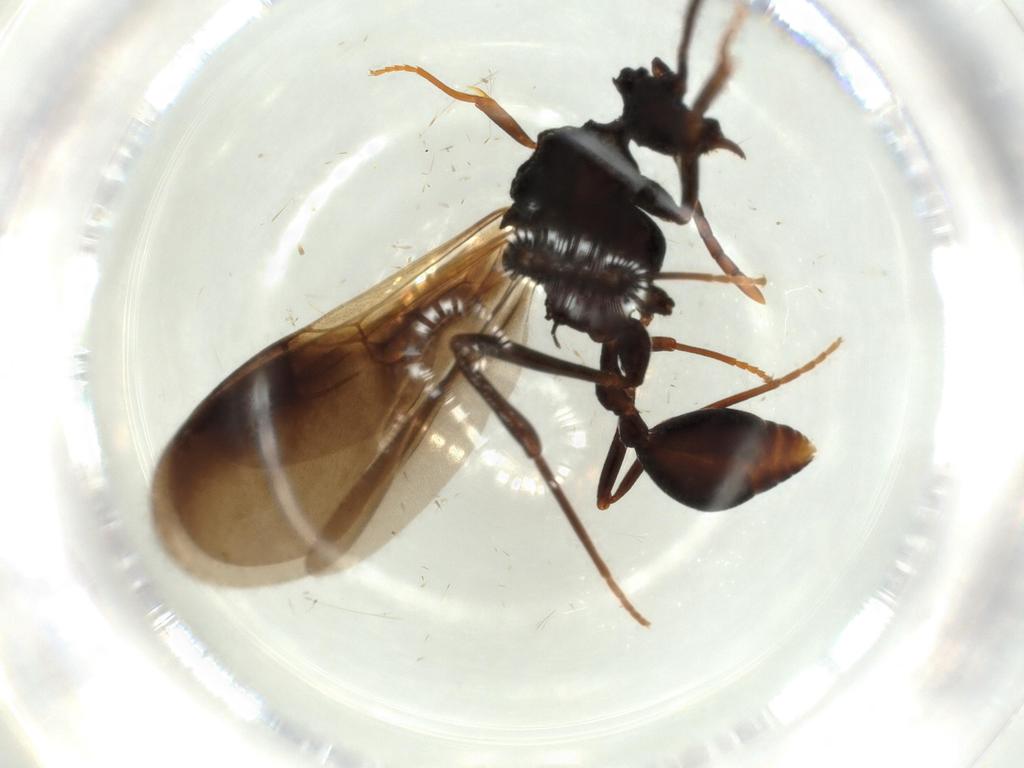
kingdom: Animalia
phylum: Arthropoda
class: Insecta
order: Hymenoptera
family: Formicidae
